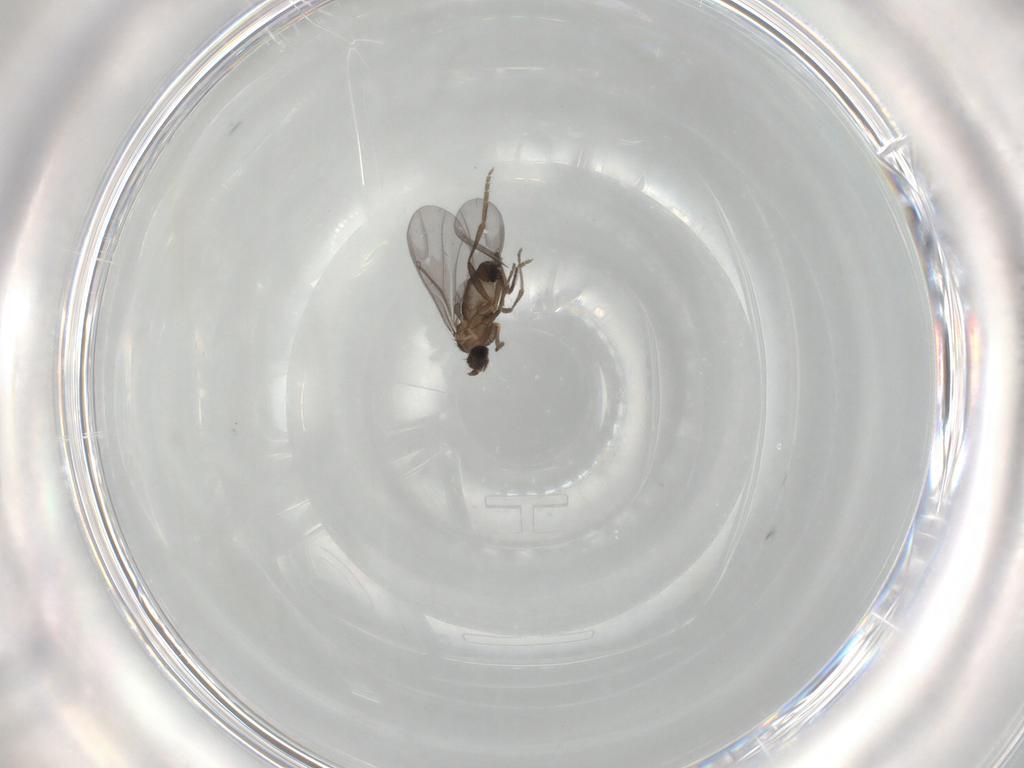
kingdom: Animalia
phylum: Arthropoda
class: Insecta
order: Diptera
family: Phoridae
